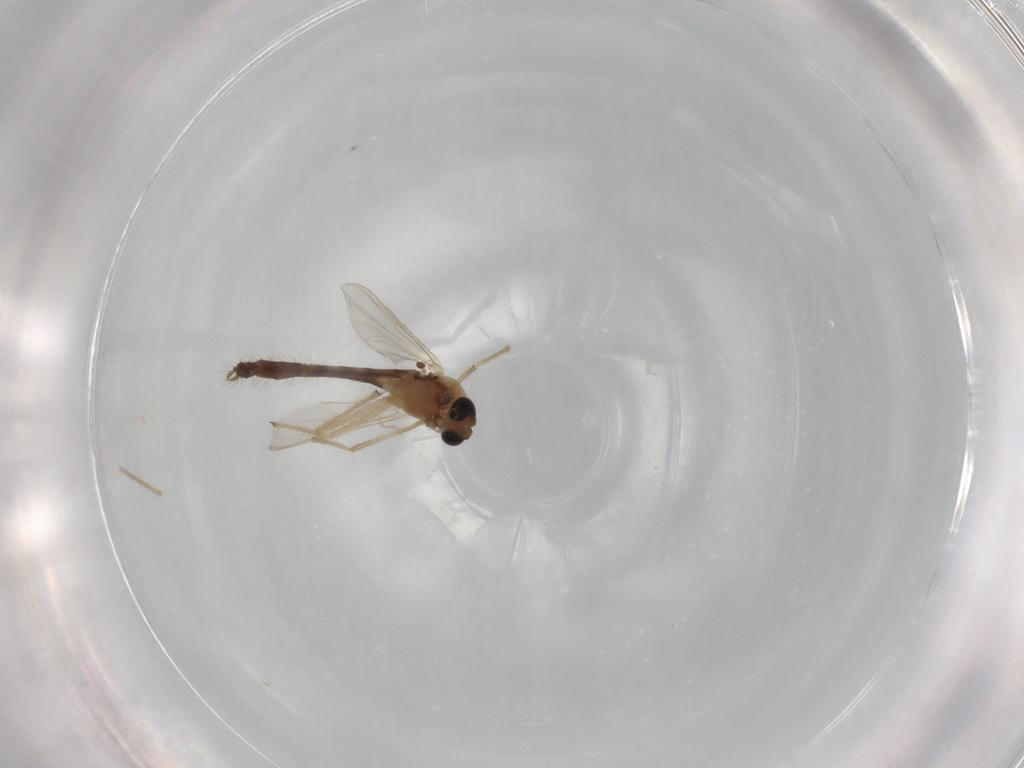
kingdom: Animalia
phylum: Arthropoda
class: Insecta
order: Diptera
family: Chironomidae
